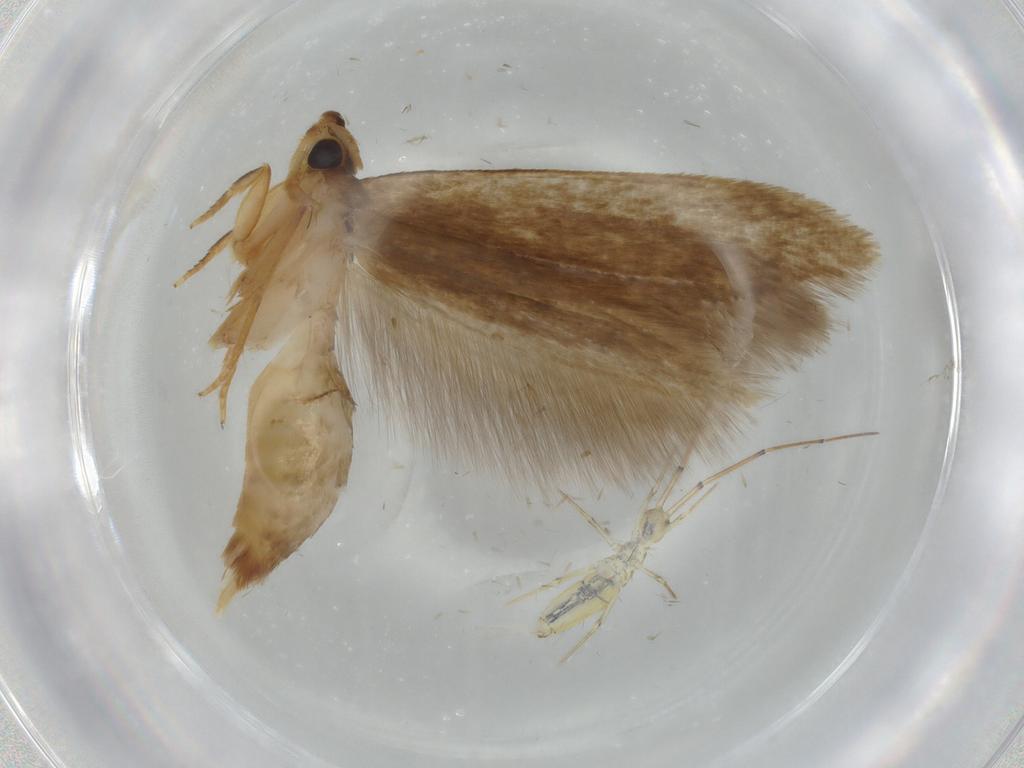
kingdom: Animalia
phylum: Arthropoda
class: Insecta
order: Lepidoptera
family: Tineidae
